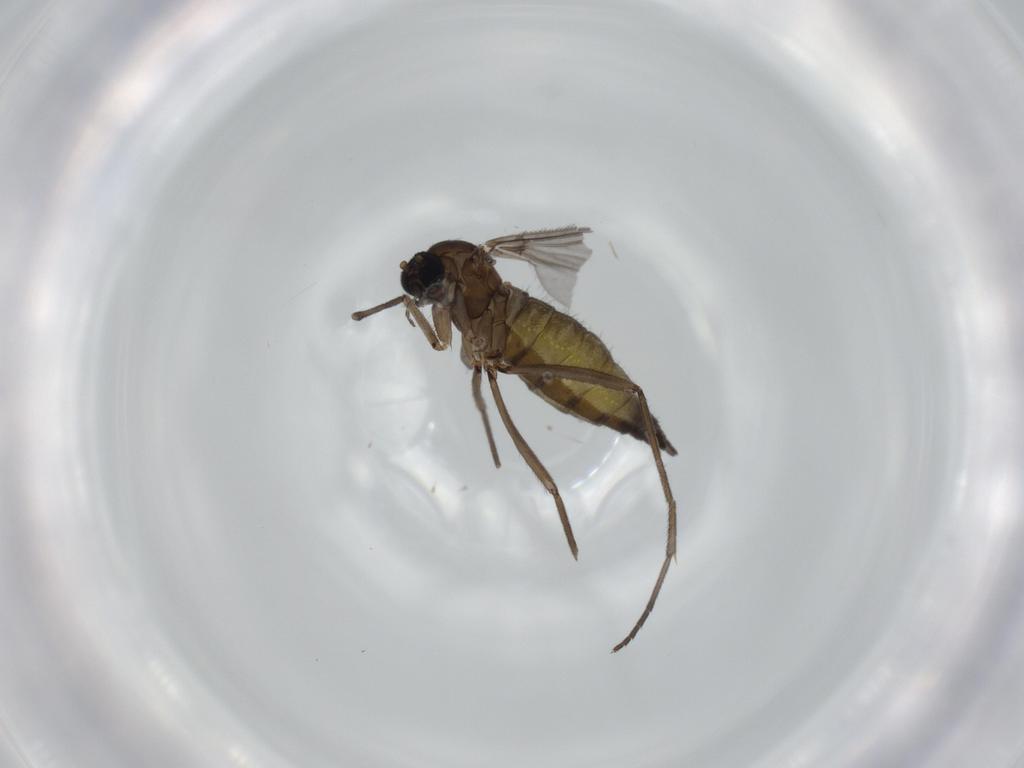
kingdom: Animalia
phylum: Arthropoda
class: Insecta
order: Diptera
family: Sciaridae
